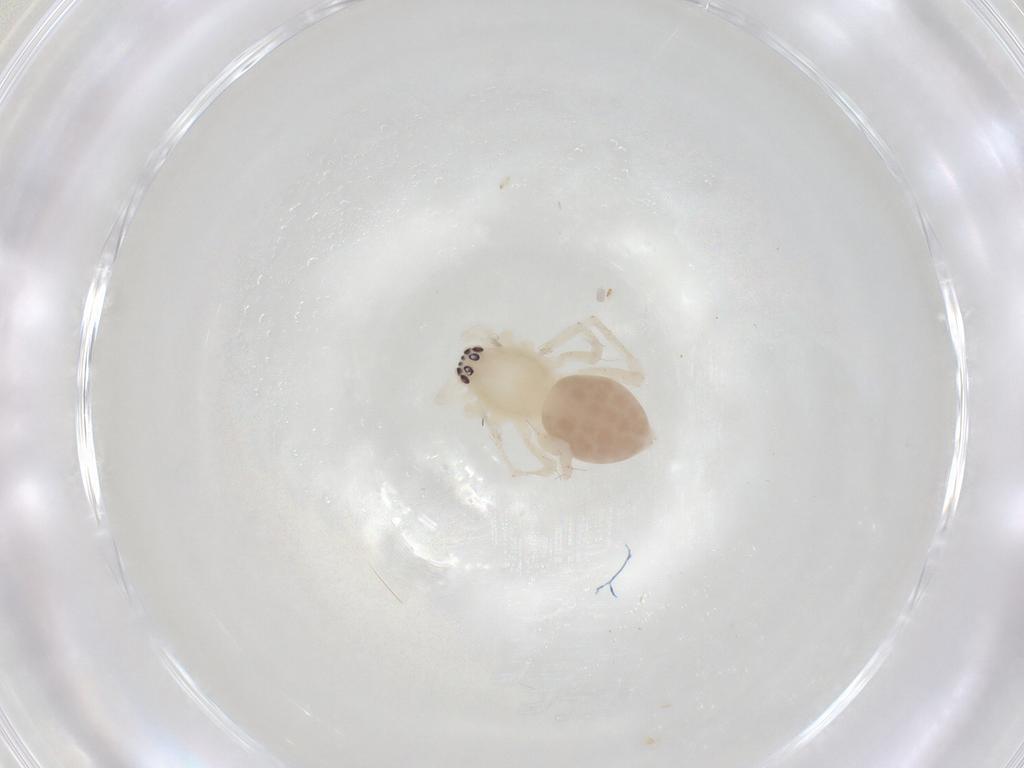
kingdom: Animalia
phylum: Arthropoda
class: Arachnida
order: Araneae
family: Anyphaenidae
